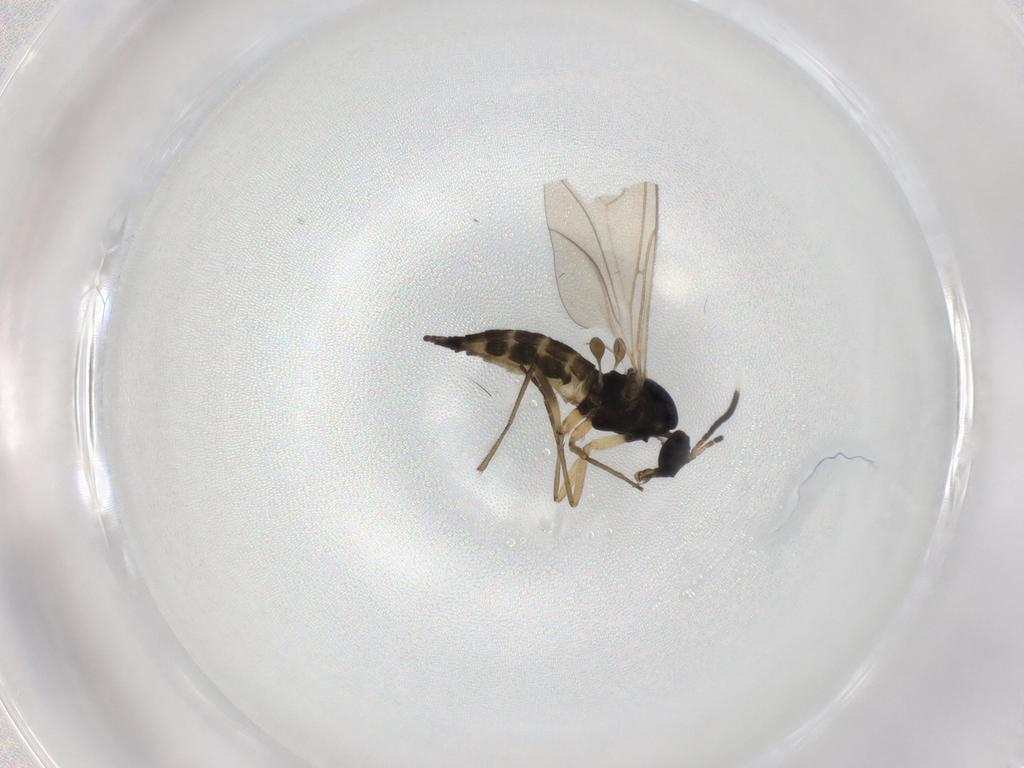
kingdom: Animalia
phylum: Arthropoda
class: Insecta
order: Diptera
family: Sciaridae
